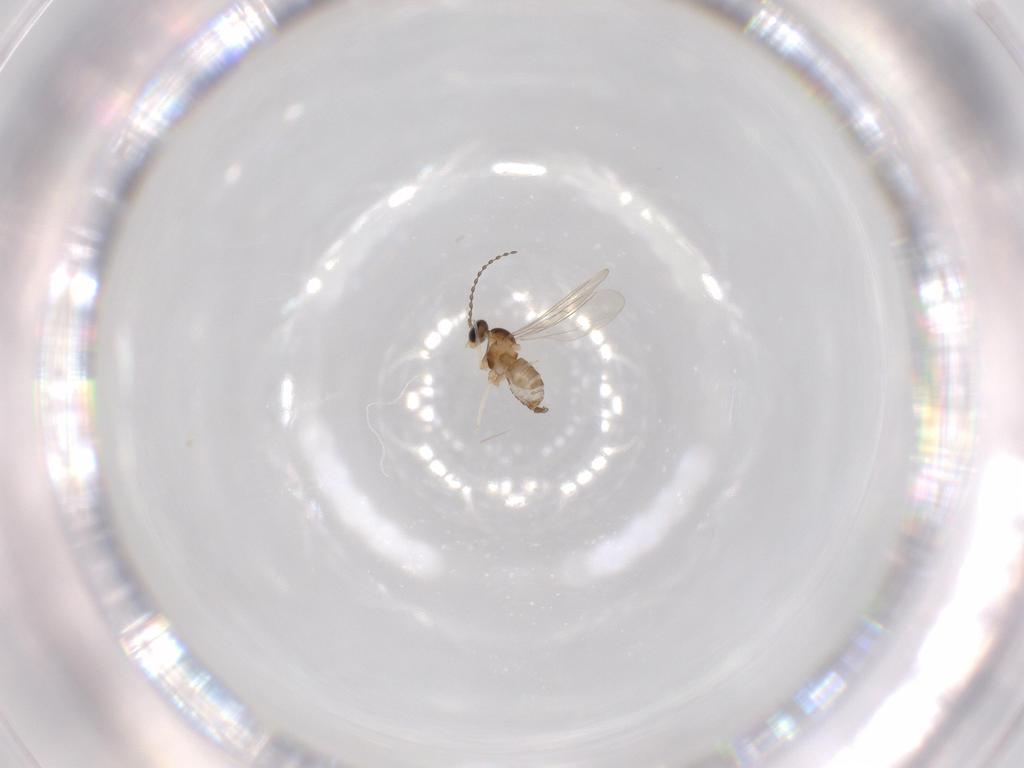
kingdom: Animalia
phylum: Arthropoda
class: Insecta
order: Diptera
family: Cecidomyiidae
